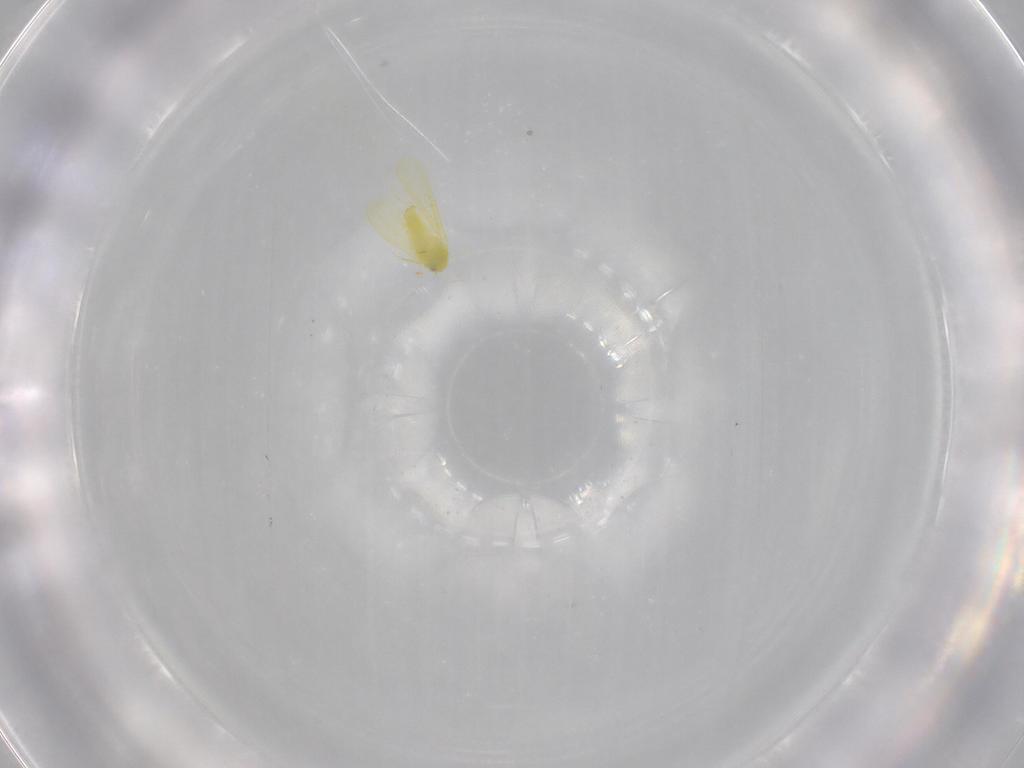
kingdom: Animalia
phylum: Arthropoda
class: Insecta
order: Hemiptera
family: Aleyrodidae
